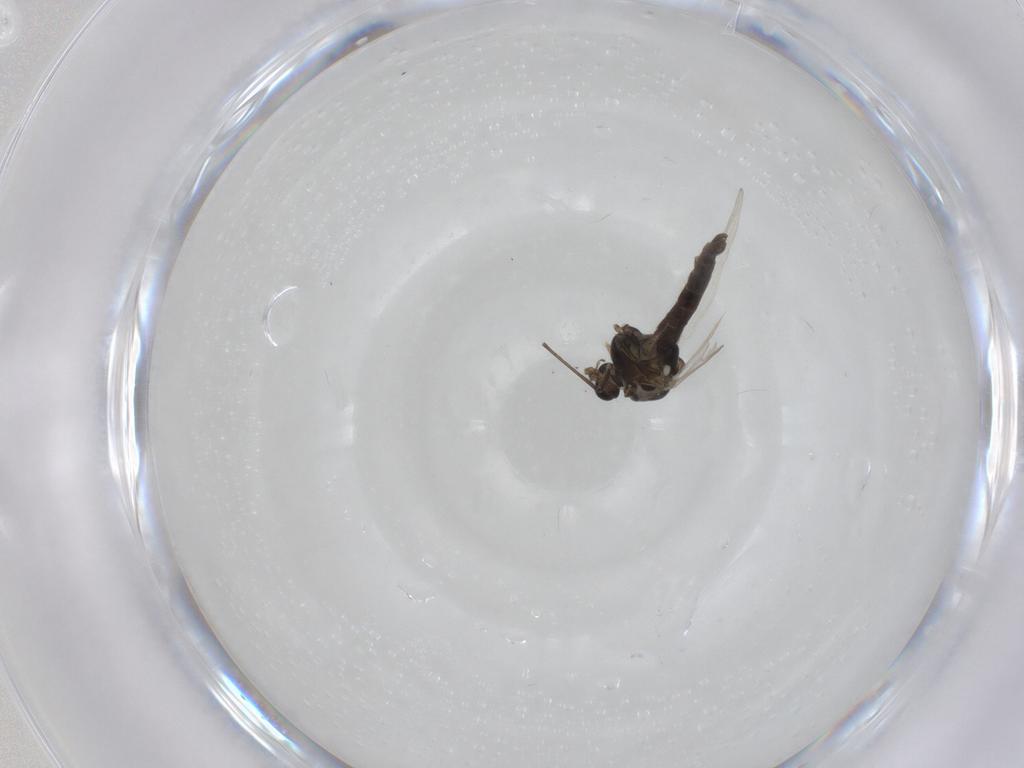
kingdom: Animalia
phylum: Arthropoda
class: Insecta
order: Diptera
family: Chironomidae
